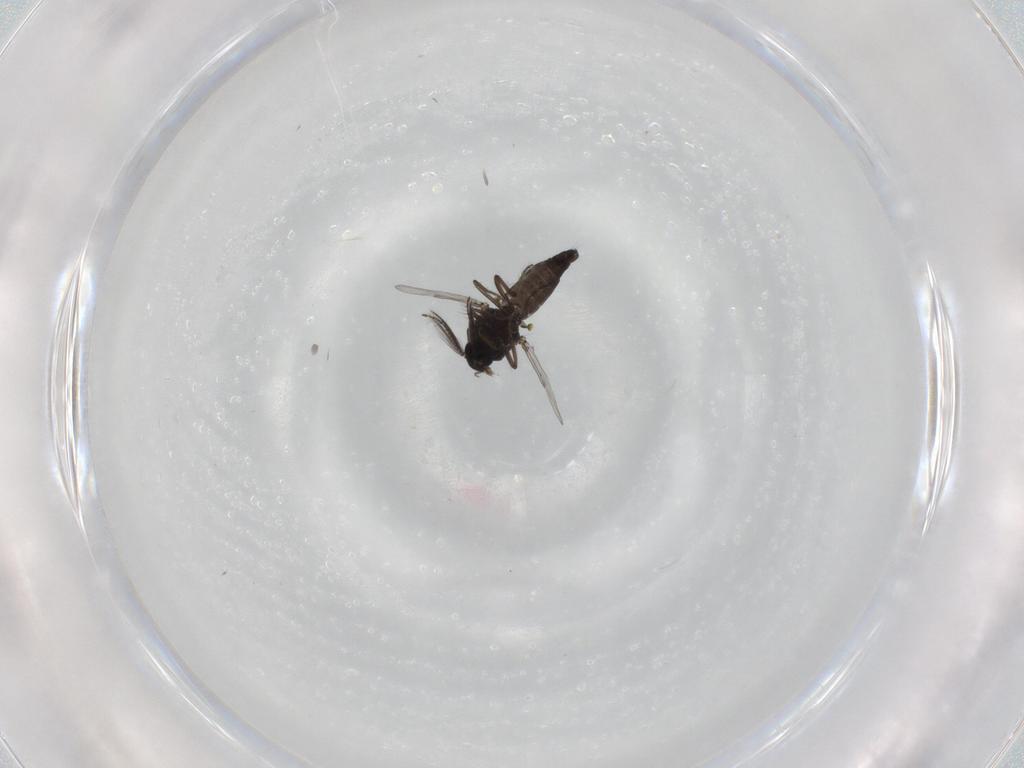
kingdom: Animalia
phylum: Arthropoda
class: Insecta
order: Diptera
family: Ceratopogonidae
